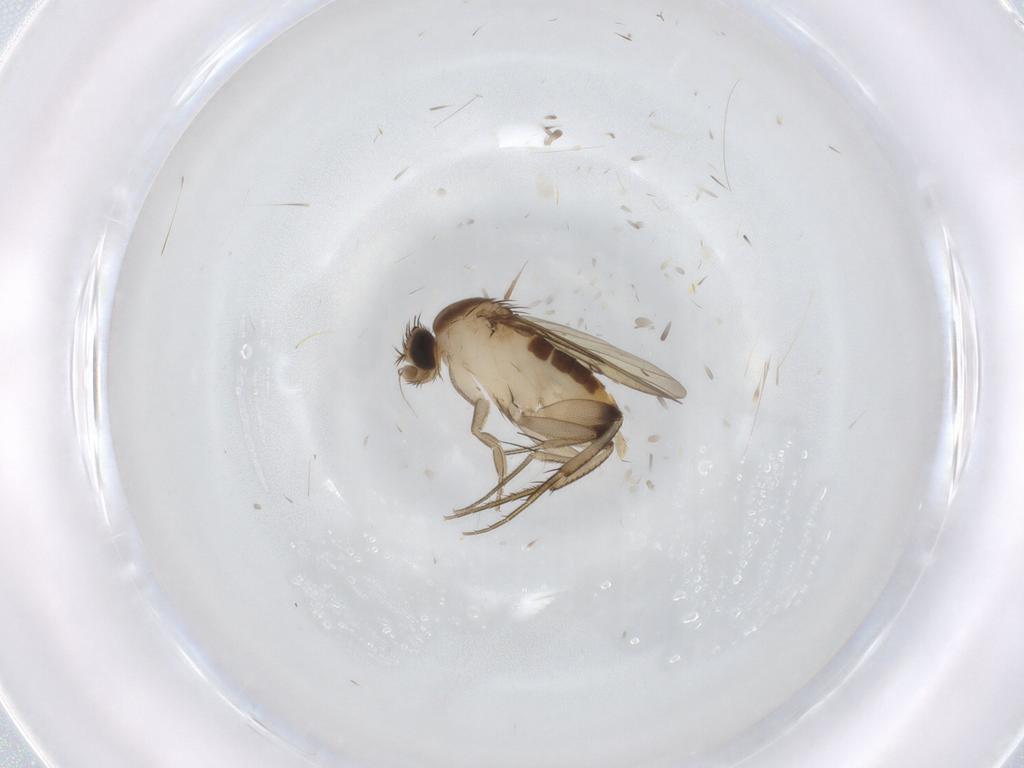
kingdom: Animalia
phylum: Arthropoda
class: Insecta
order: Diptera
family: Phoridae
